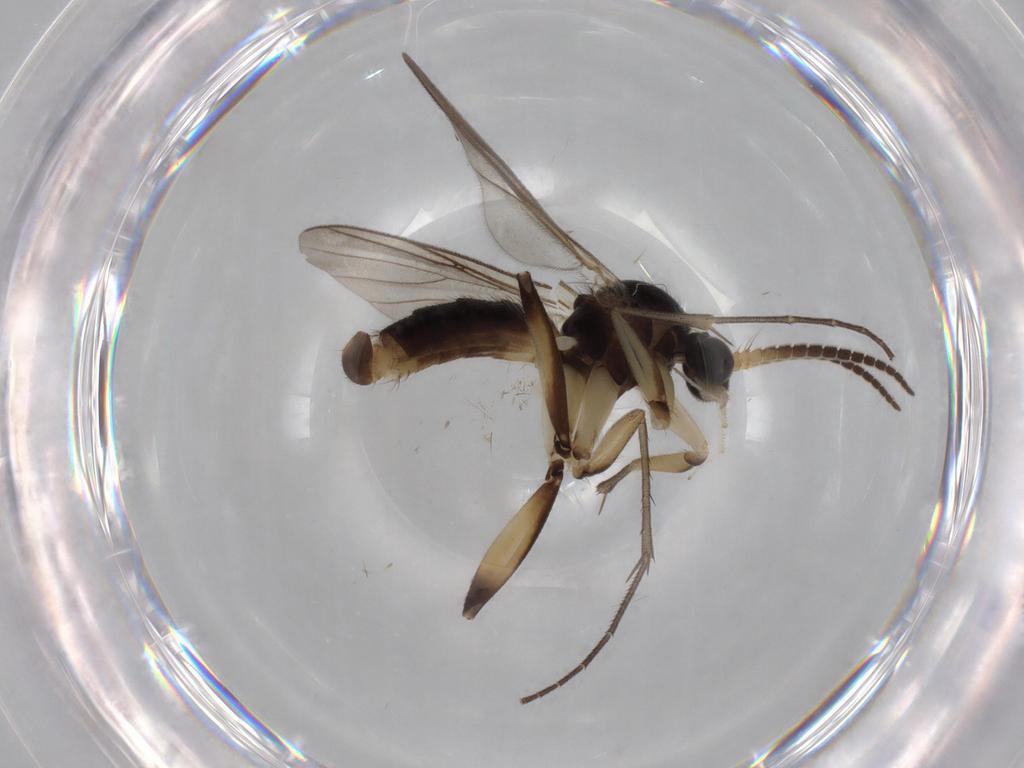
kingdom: Animalia
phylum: Arthropoda
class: Insecta
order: Diptera
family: Mycetophilidae
